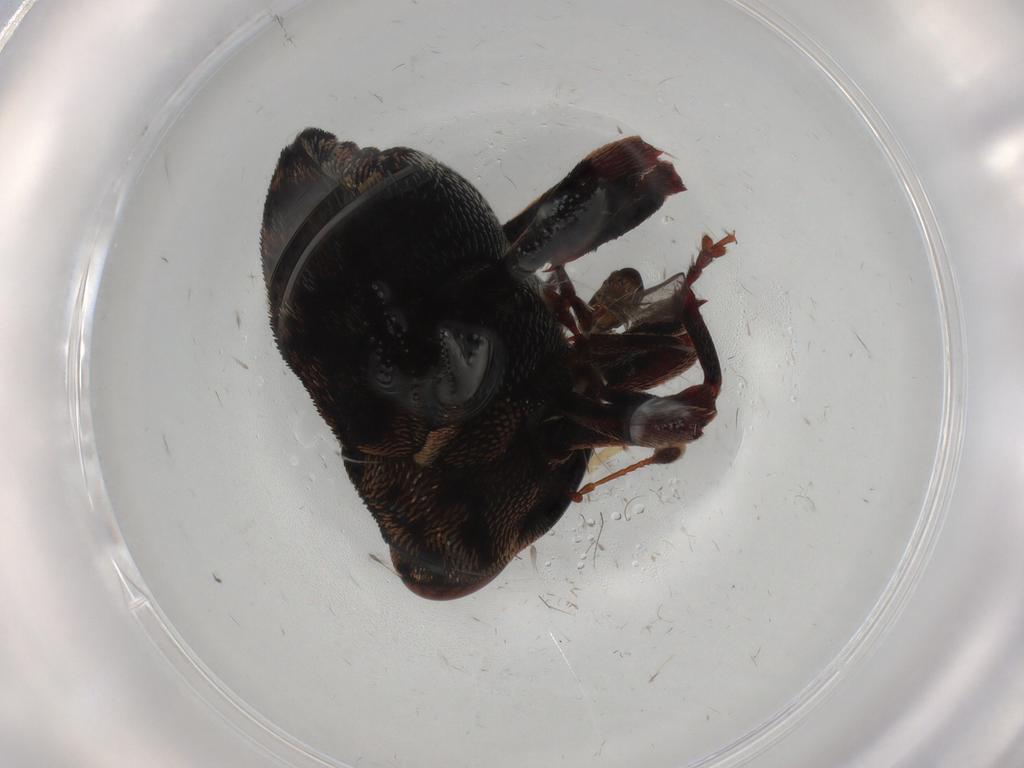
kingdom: Animalia
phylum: Arthropoda
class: Insecta
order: Coleoptera
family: Curculionidae
